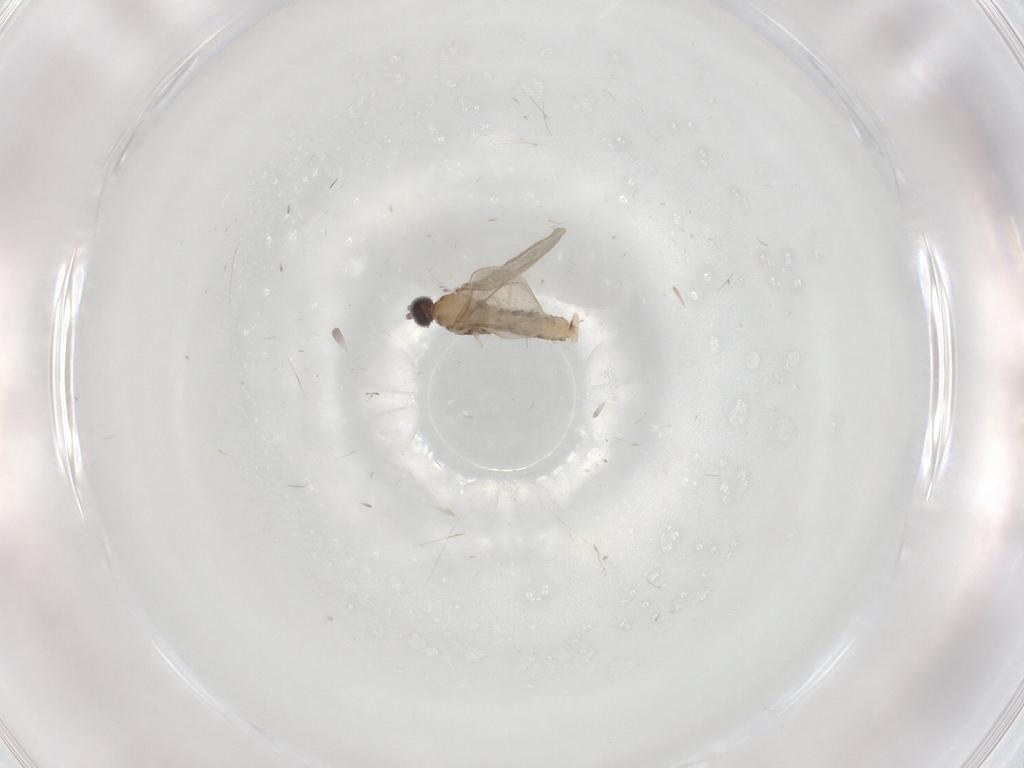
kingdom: Animalia
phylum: Arthropoda
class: Insecta
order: Diptera
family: Cecidomyiidae
